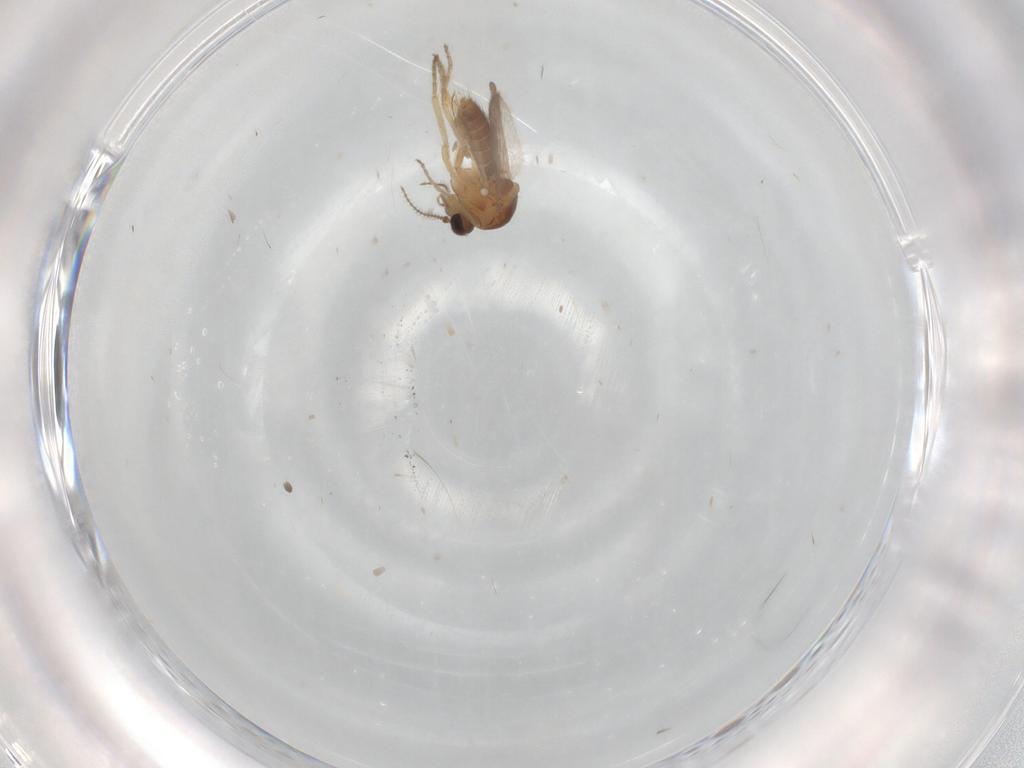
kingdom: Animalia
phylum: Arthropoda
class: Insecta
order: Diptera
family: Ceratopogonidae
